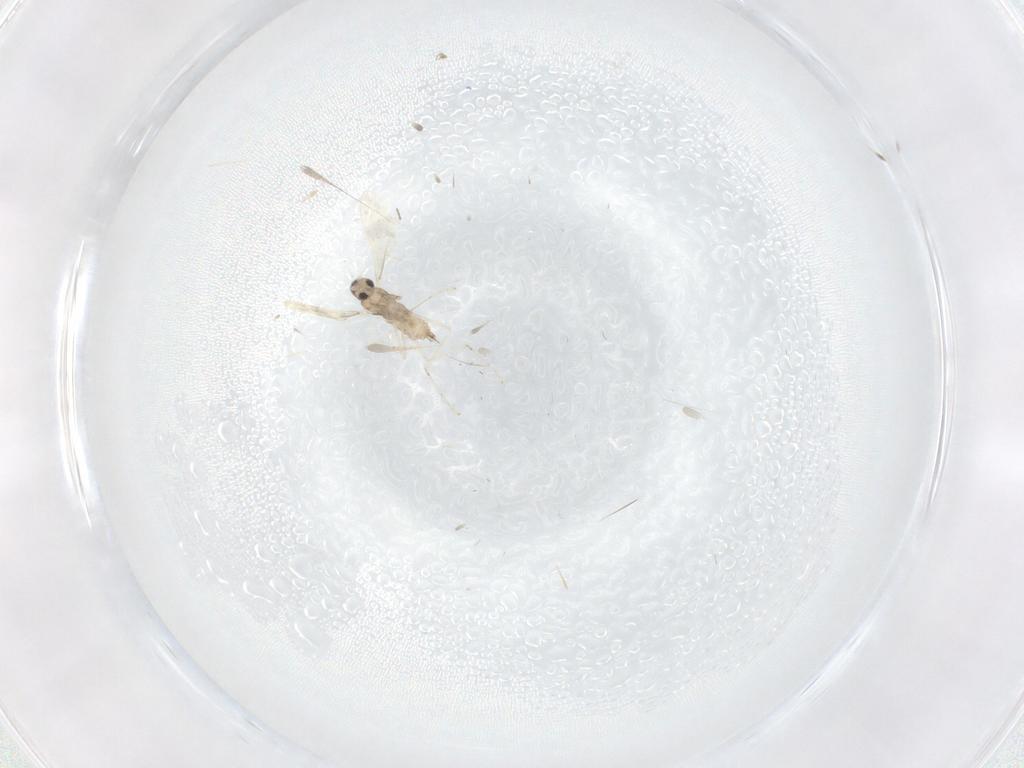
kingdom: Animalia
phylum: Arthropoda
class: Insecta
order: Diptera
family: Cecidomyiidae
